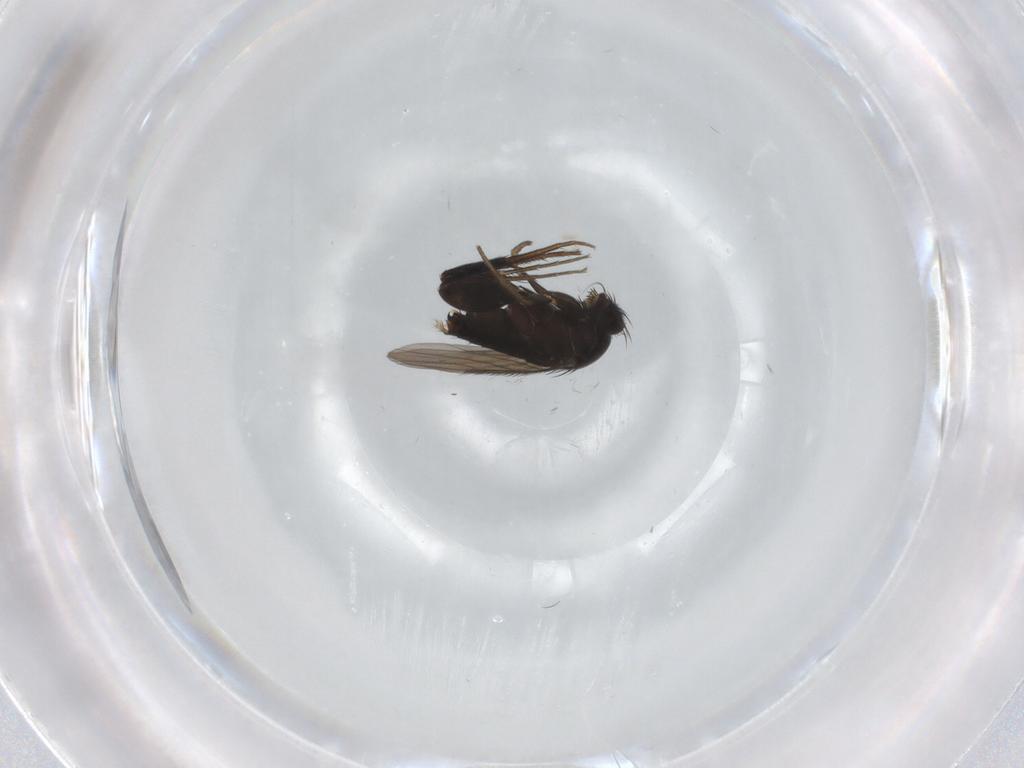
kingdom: Animalia
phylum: Arthropoda
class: Insecta
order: Diptera
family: Phoridae
